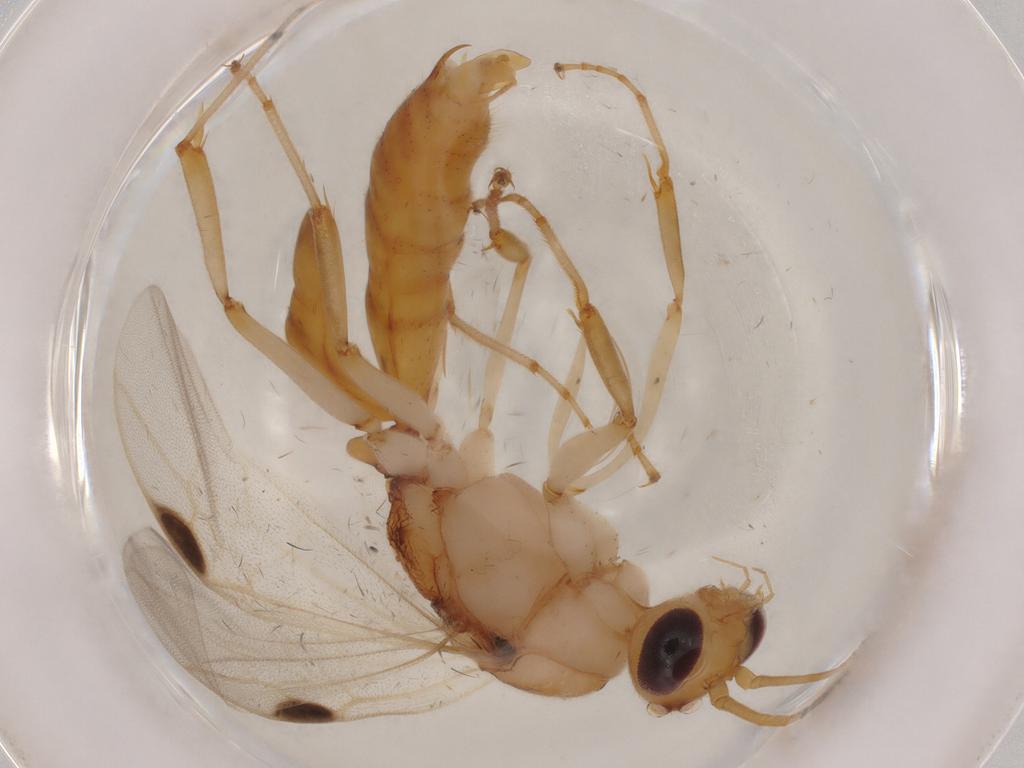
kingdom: Animalia
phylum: Arthropoda
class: Insecta
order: Hymenoptera
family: Formicidae
